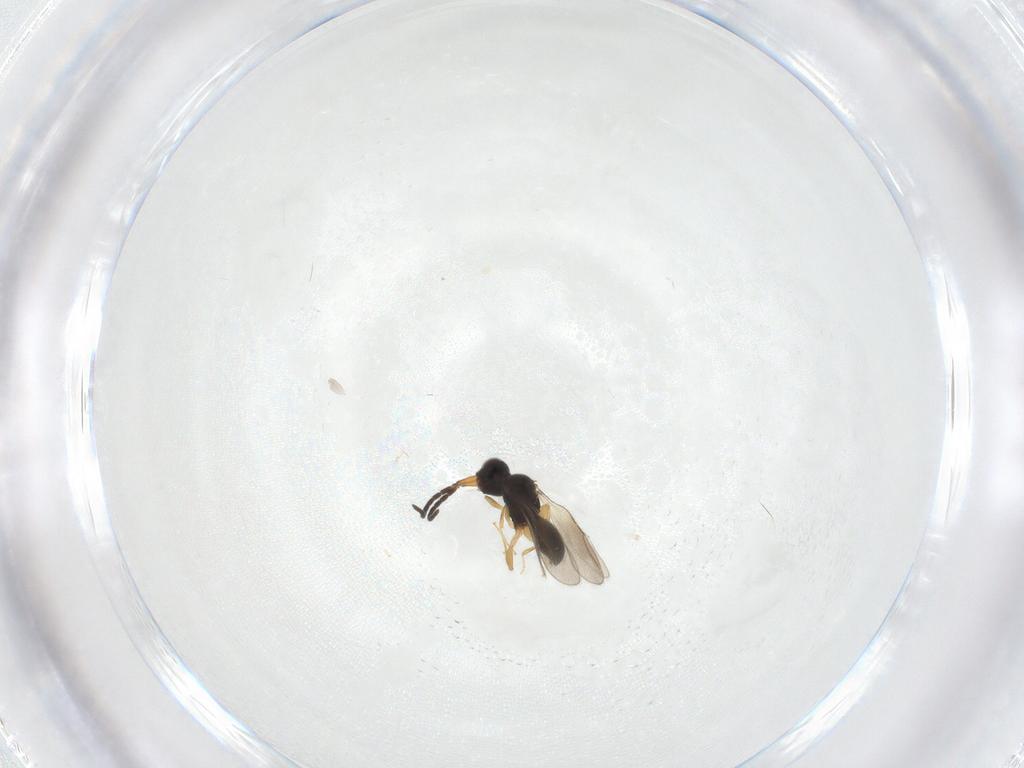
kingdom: Animalia
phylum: Arthropoda
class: Insecta
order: Hymenoptera
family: Ceraphronidae
